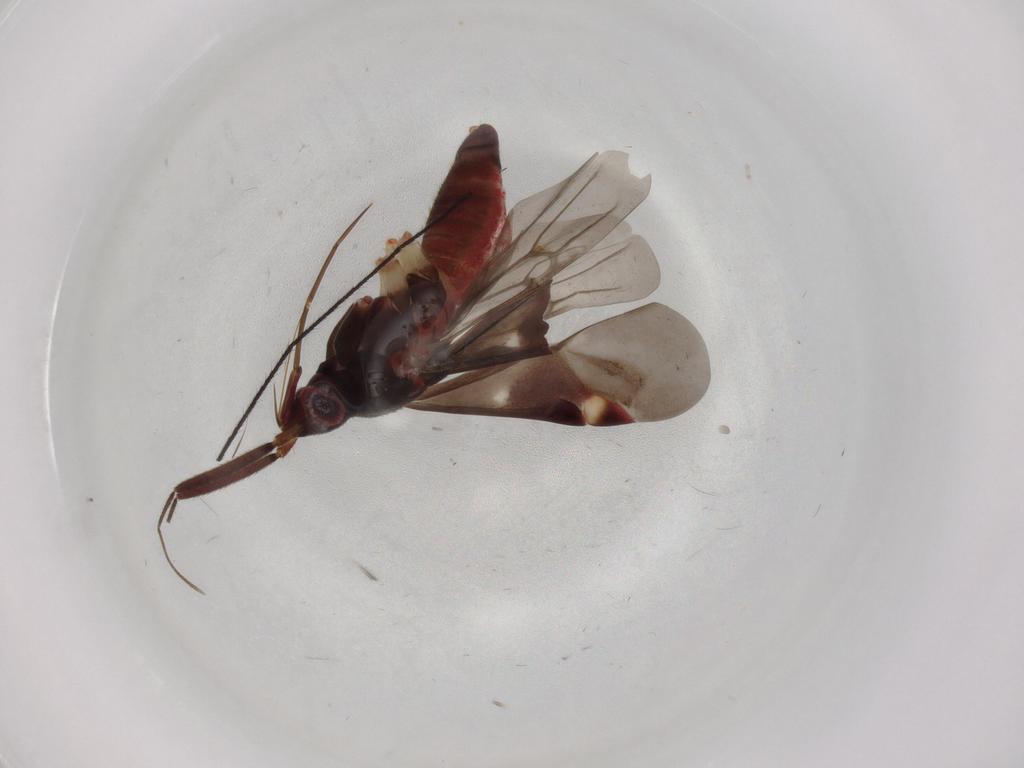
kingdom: Animalia
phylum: Arthropoda
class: Insecta
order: Hemiptera
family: Miridae
